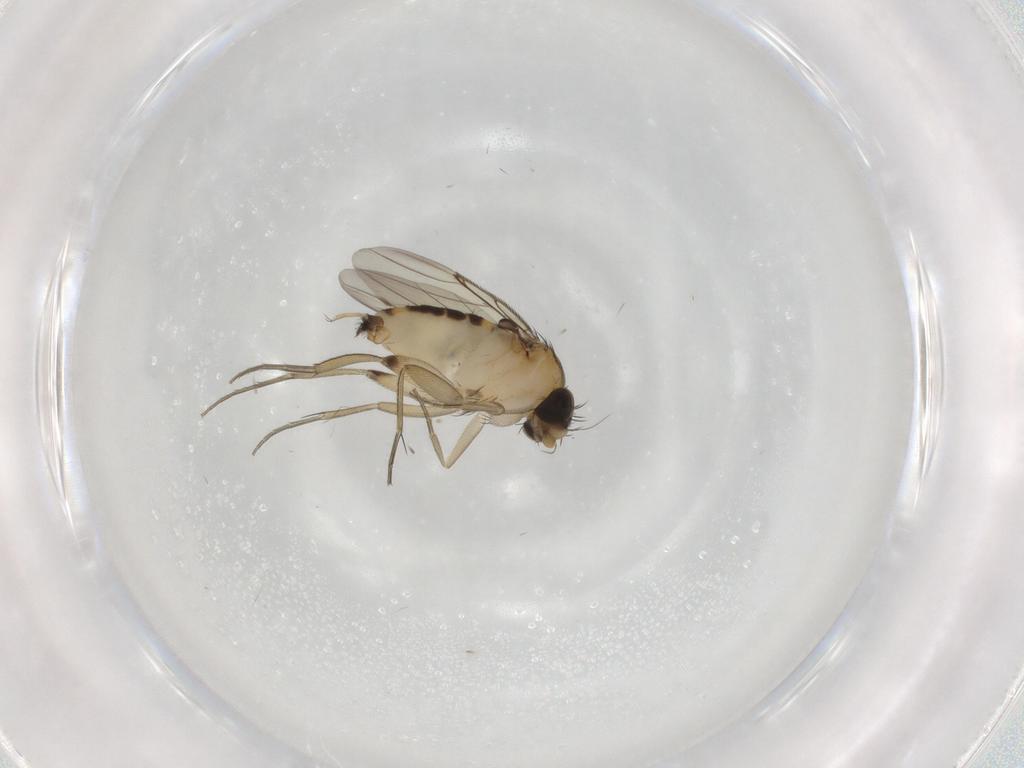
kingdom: Animalia
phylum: Arthropoda
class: Insecta
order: Diptera
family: Phoridae
